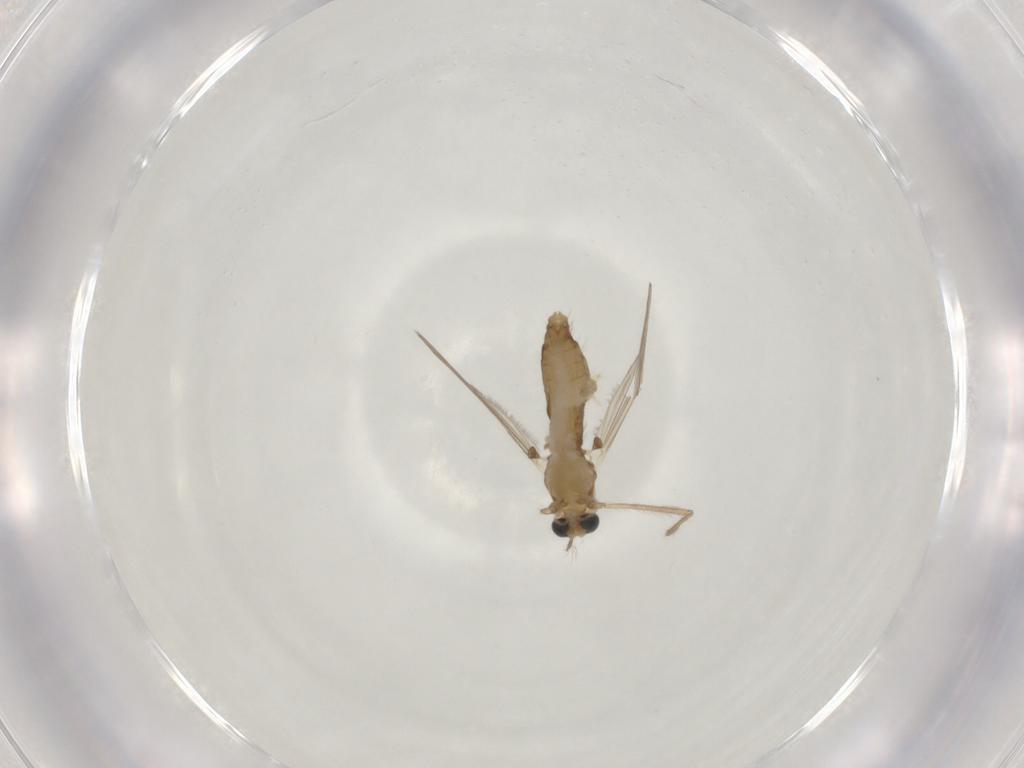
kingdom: Animalia
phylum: Arthropoda
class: Insecta
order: Diptera
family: Chironomidae
